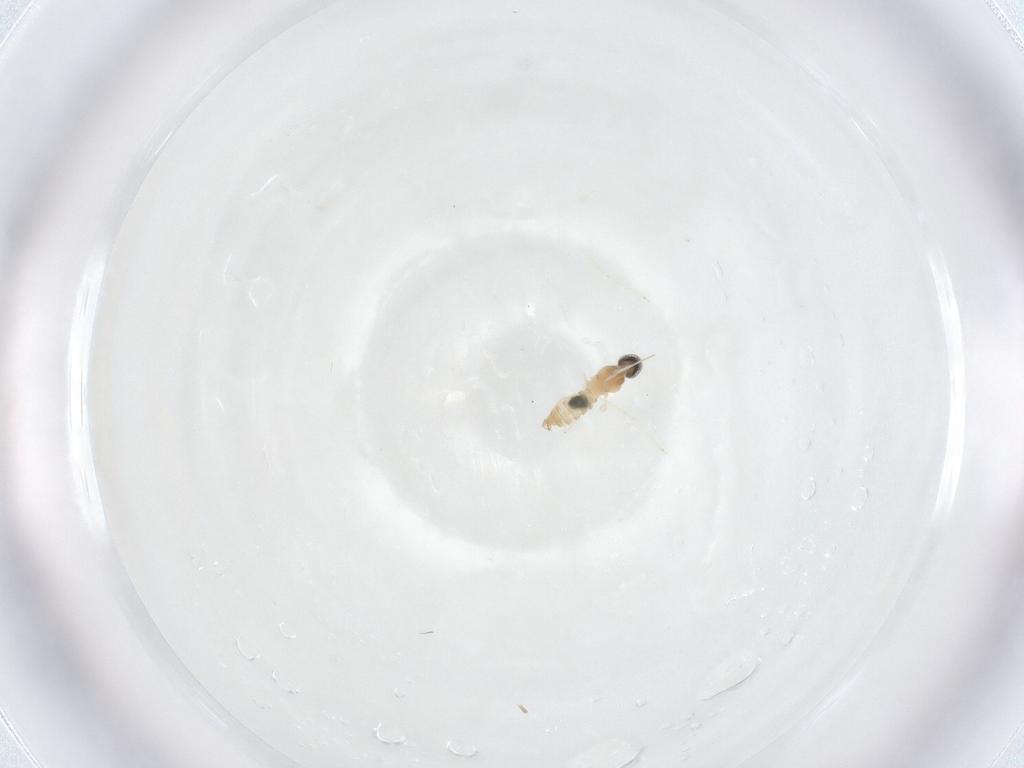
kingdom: Animalia
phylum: Arthropoda
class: Insecta
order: Diptera
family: Cecidomyiidae
